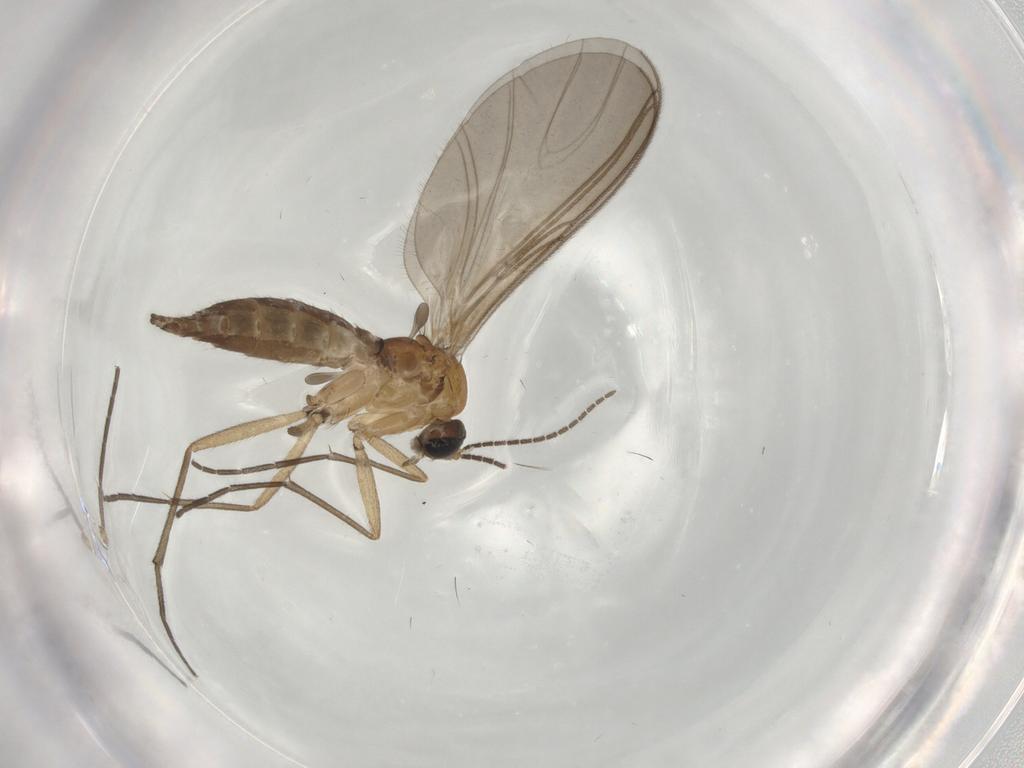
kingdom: Animalia
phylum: Arthropoda
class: Insecta
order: Diptera
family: Sciaridae
